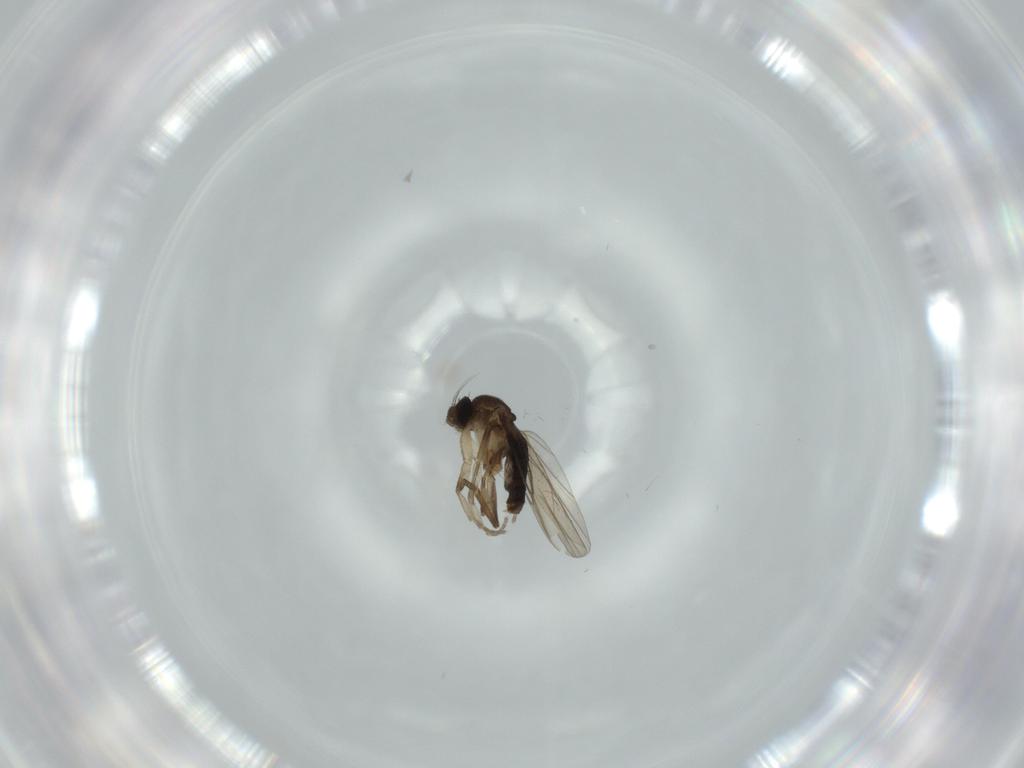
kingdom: Animalia
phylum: Arthropoda
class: Insecta
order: Diptera
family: Phoridae
